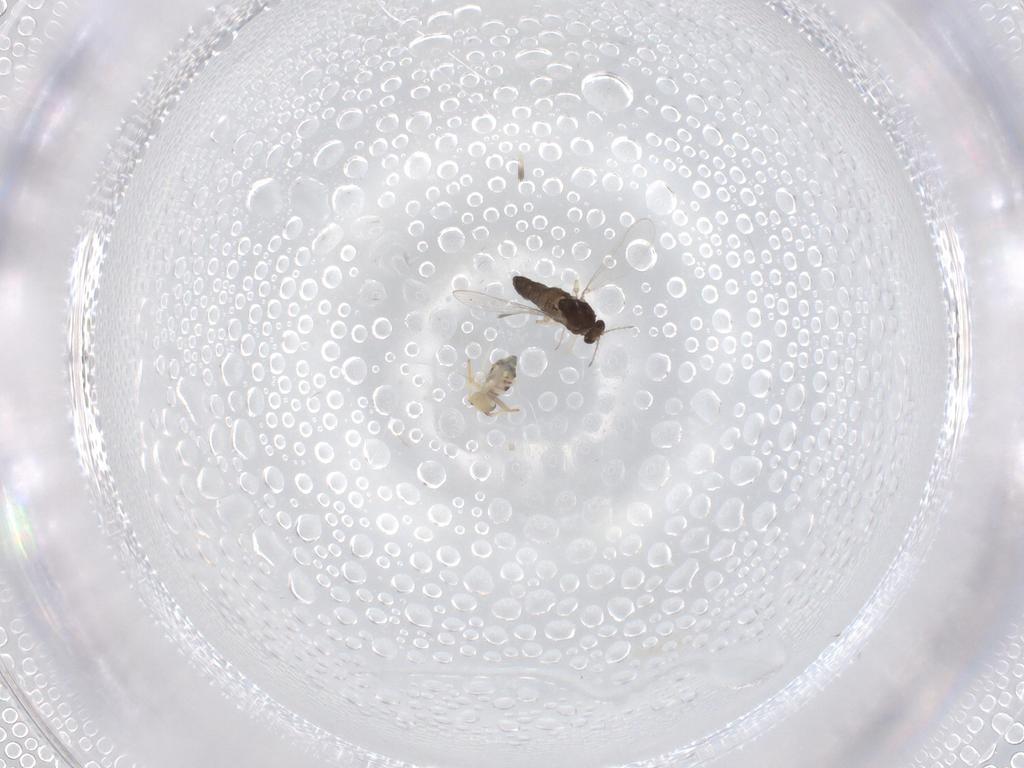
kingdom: Animalia
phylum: Arthropoda
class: Insecta
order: Diptera
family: Chironomidae
